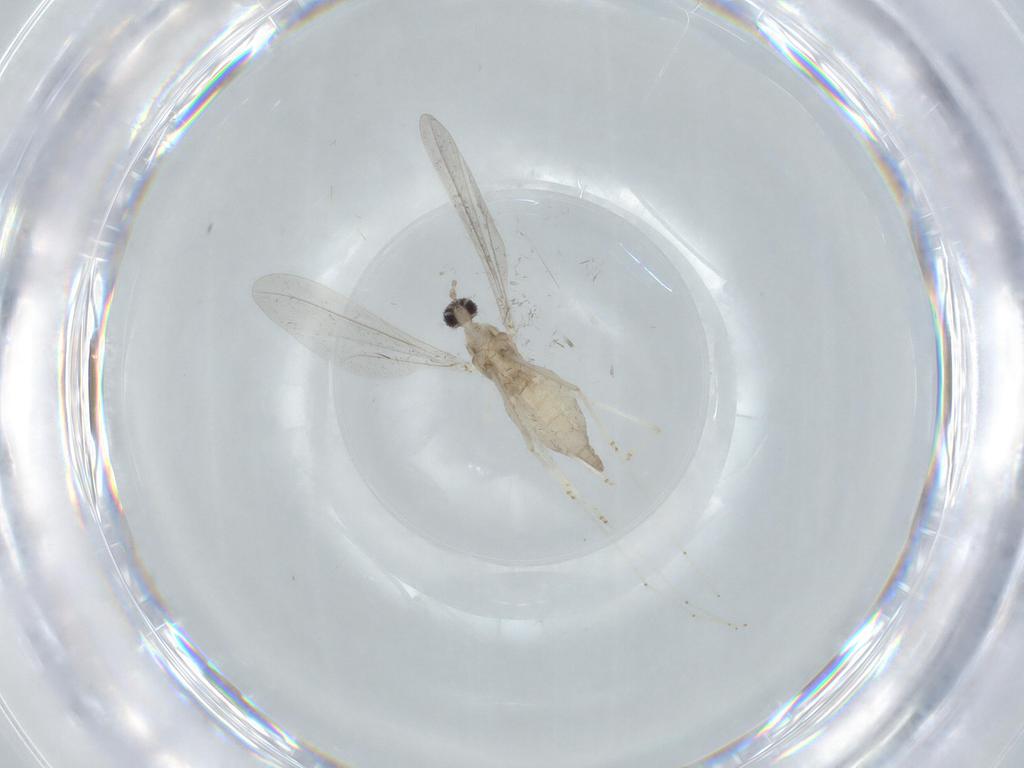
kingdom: Animalia
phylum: Arthropoda
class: Insecta
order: Diptera
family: Cecidomyiidae
